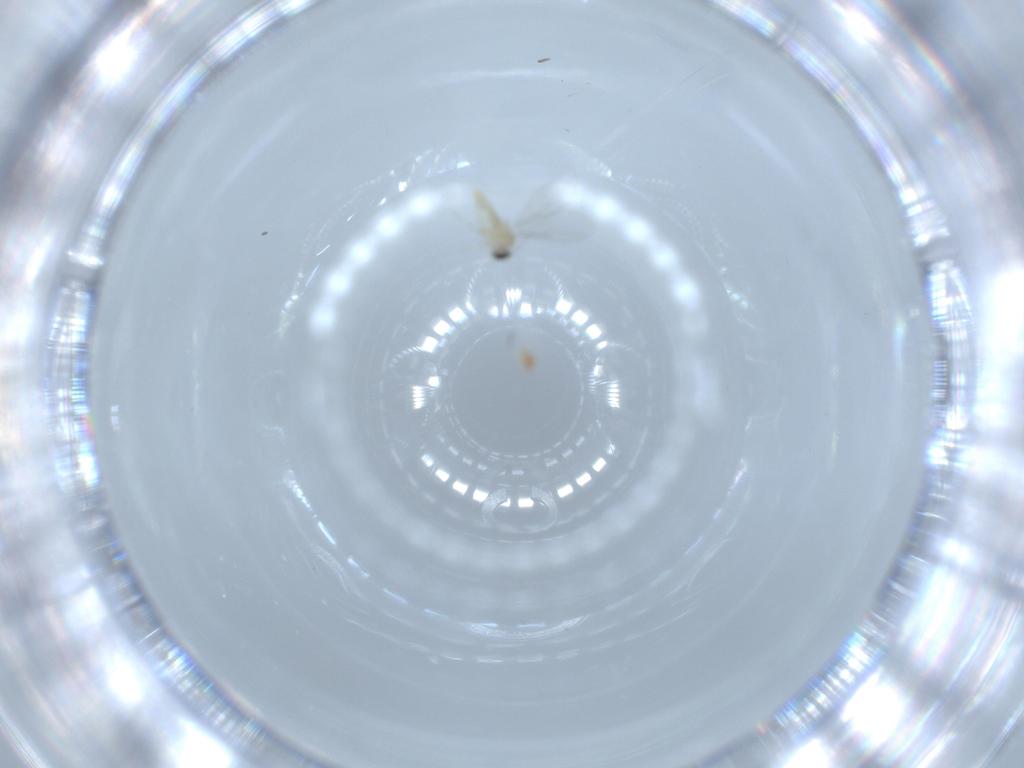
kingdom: Animalia
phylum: Arthropoda
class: Insecta
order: Diptera
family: Cecidomyiidae
